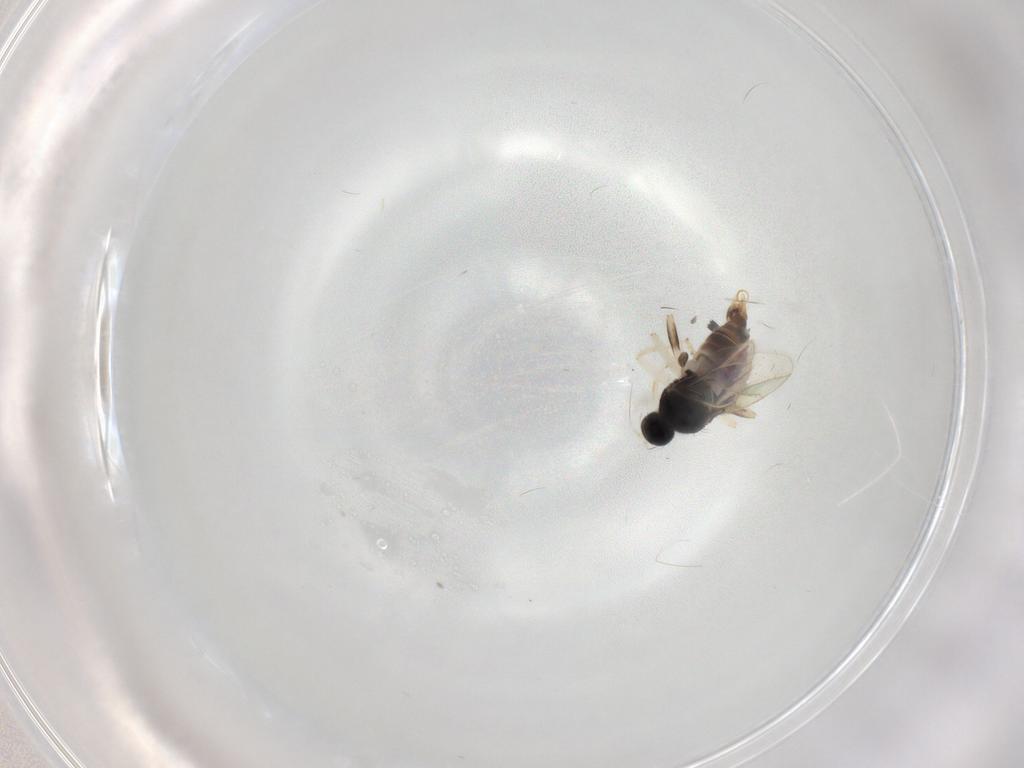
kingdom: Animalia
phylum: Arthropoda
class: Insecta
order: Diptera
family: Hybotidae
